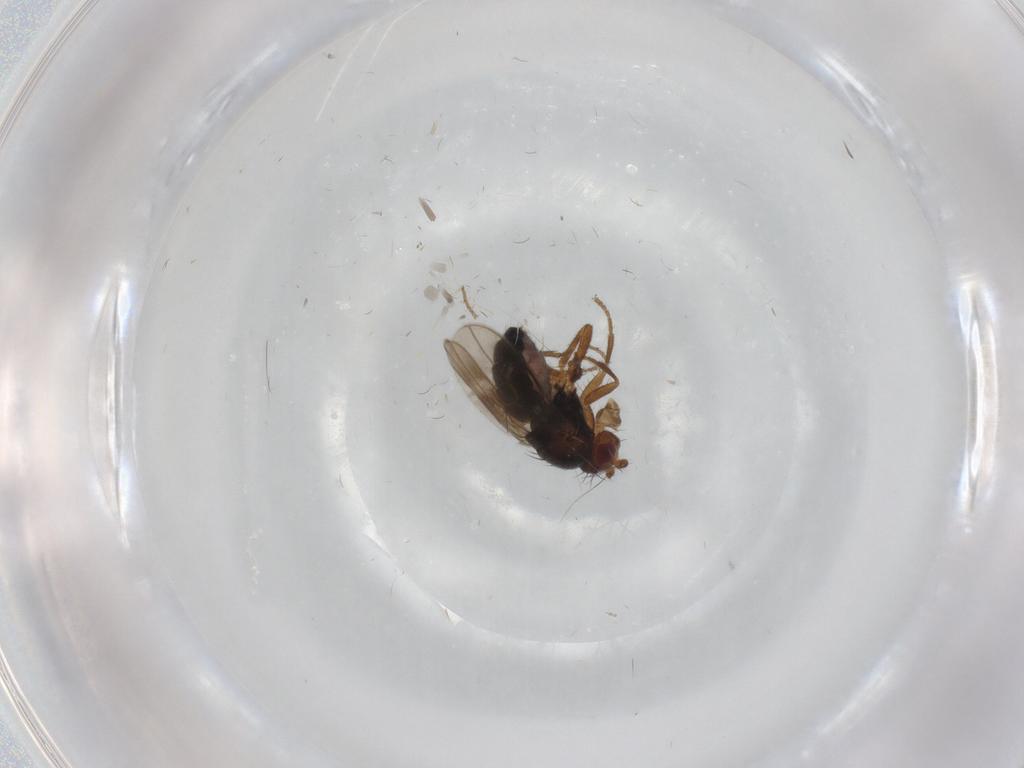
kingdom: Animalia
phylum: Arthropoda
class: Insecta
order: Diptera
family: Sphaeroceridae
